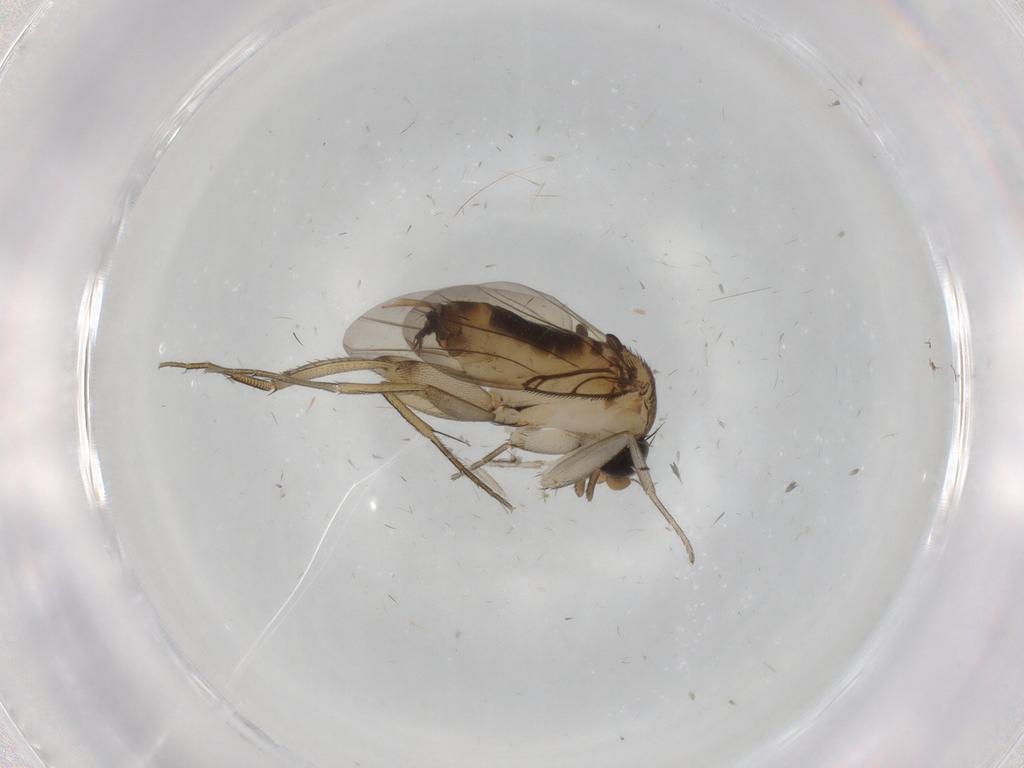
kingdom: Animalia
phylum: Arthropoda
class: Insecta
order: Diptera
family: Phoridae
